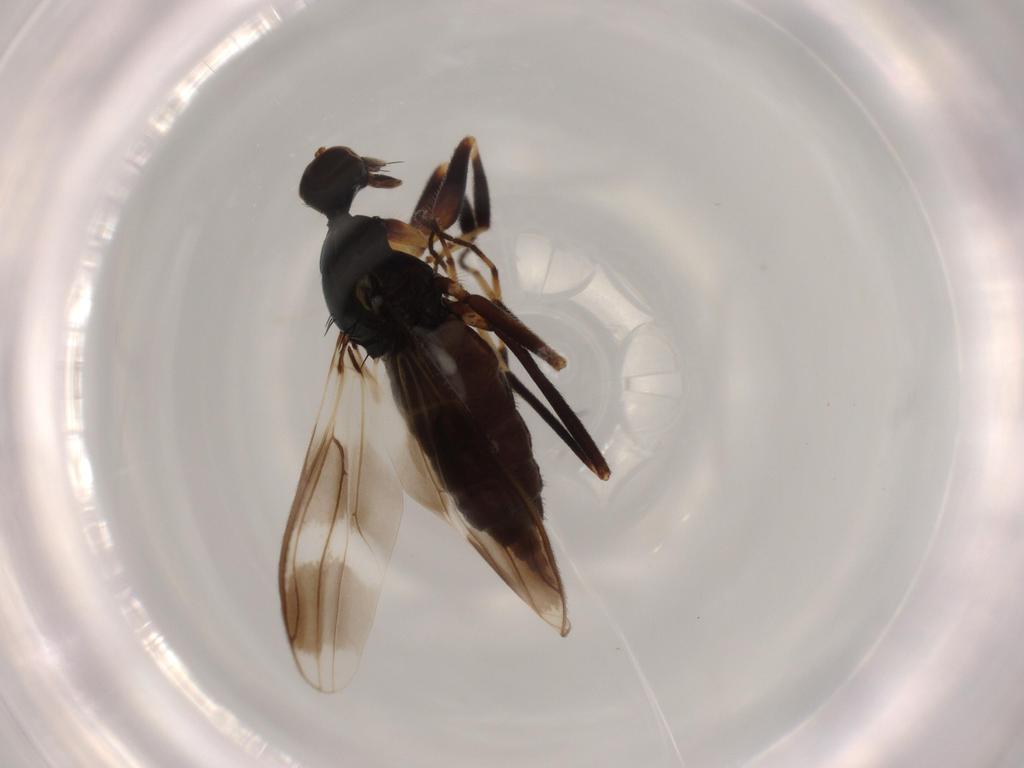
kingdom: Animalia
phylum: Arthropoda
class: Insecta
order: Diptera
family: Hybotidae
